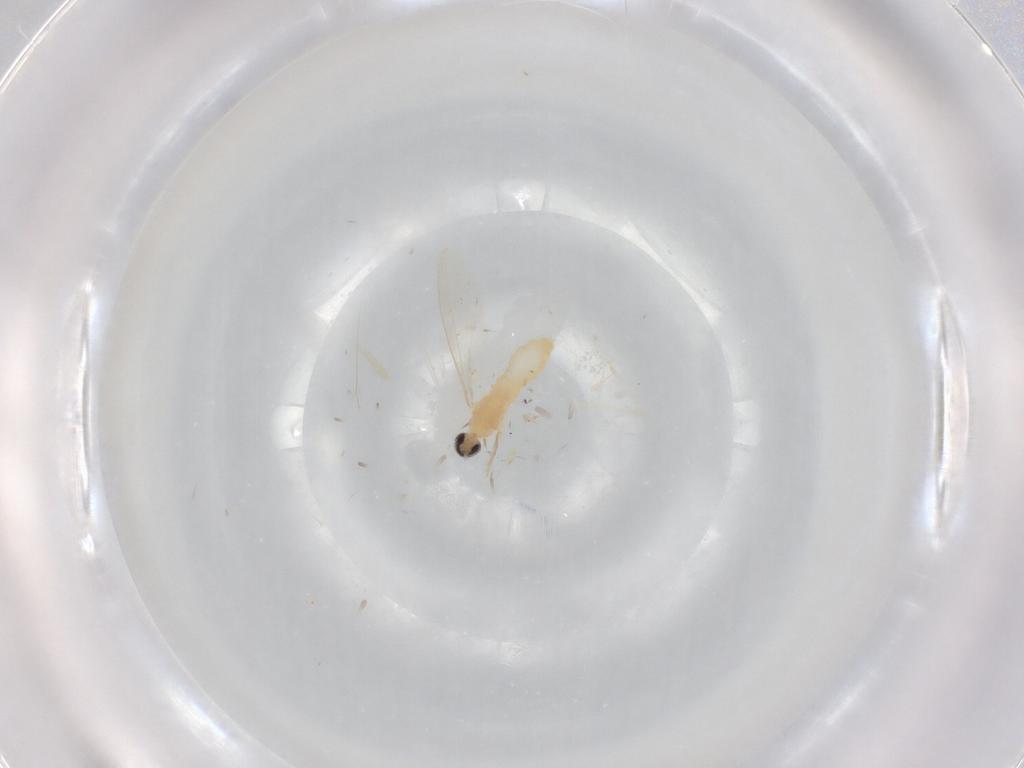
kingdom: Animalia
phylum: Arthropoda
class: Insecta
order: Diptera
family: Cecidomyiidae
